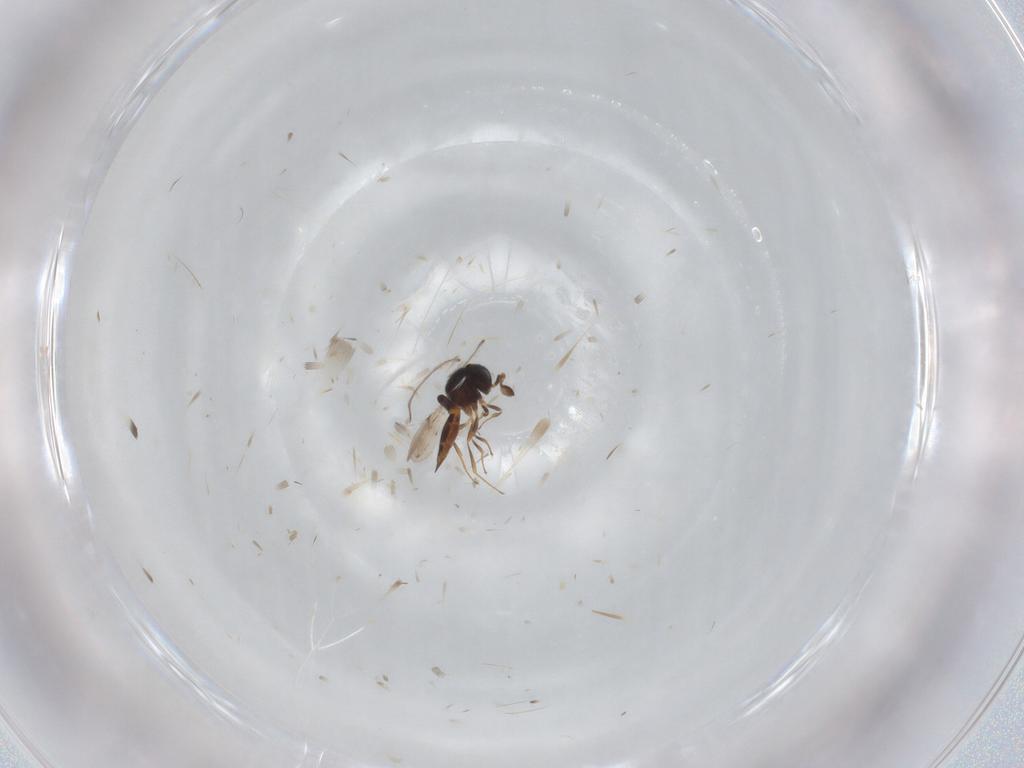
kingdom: Animalia
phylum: Arthropoda
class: Insecta
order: Hymenoptera
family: Scelionidae
